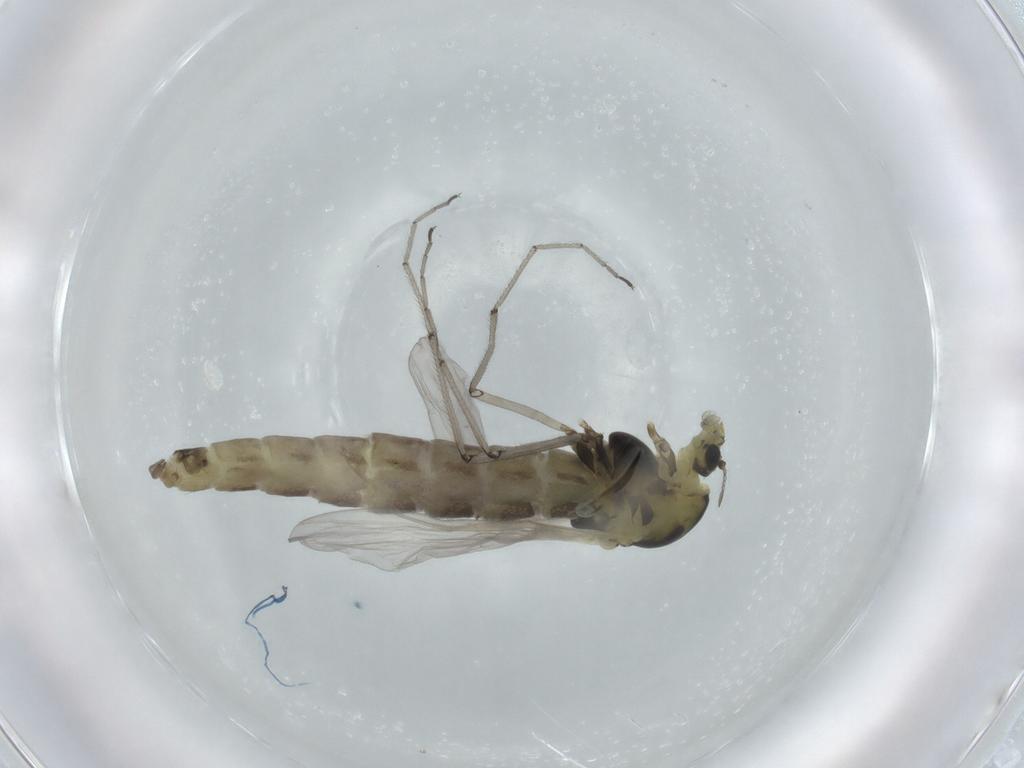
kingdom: Animalia
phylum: Arthropoda
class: Insecta
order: Diptera
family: Chironomidae
